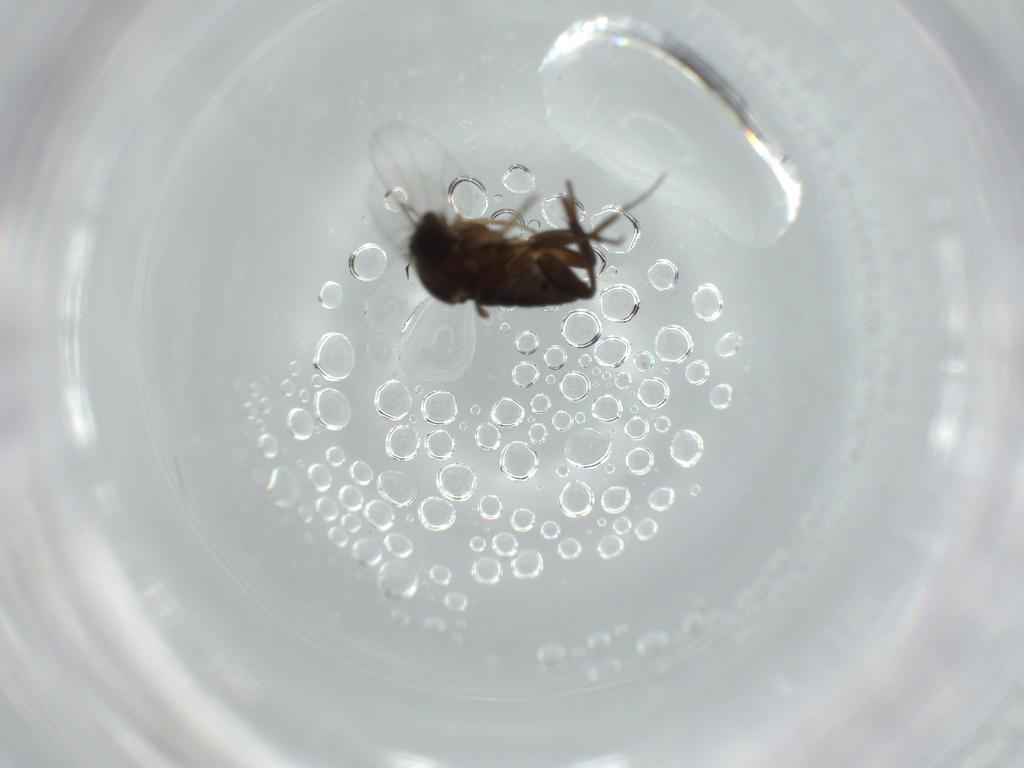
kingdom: Animalia
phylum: Arthropoda
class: Insecta
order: Diptera
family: Phoridae
